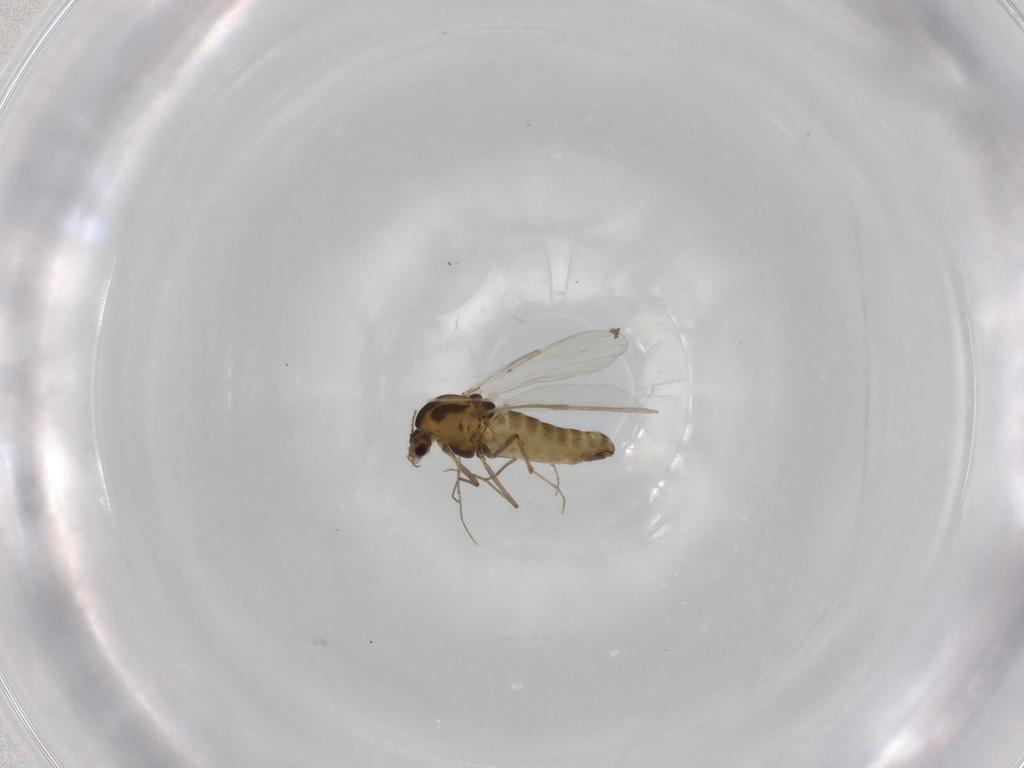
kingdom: Animalia
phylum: Arthropoda
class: Insecta
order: Diptera
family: Chironomidae
